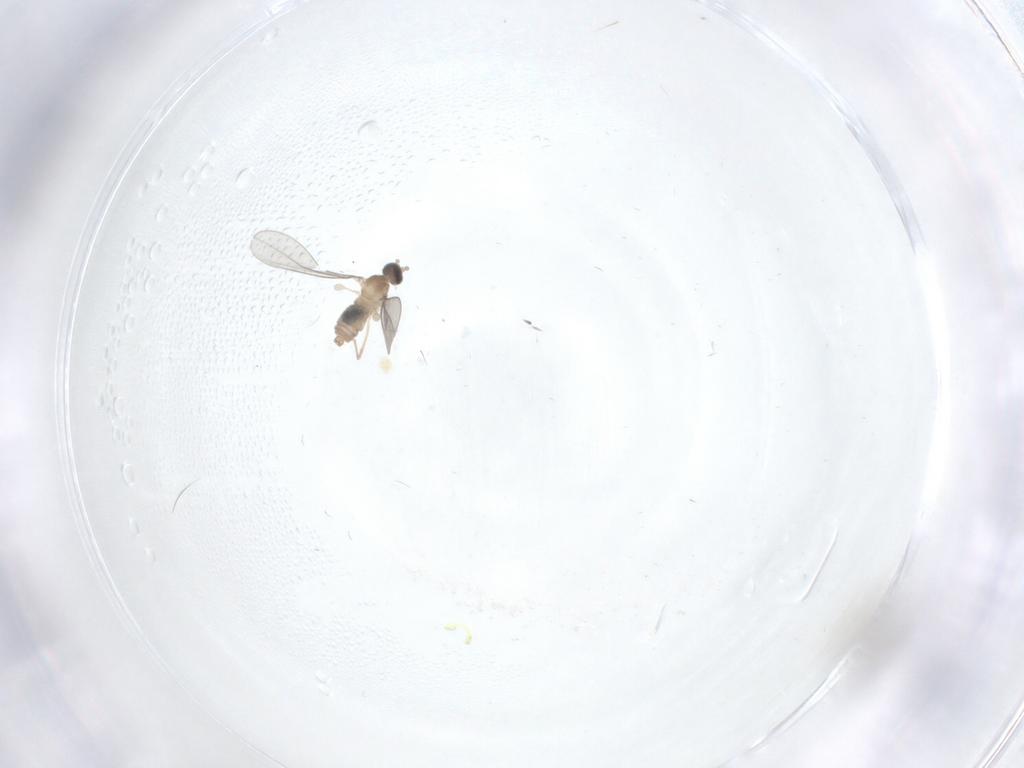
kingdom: Animalia
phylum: Arthropoda
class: Insecta
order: Diptera
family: Cecidomyiidae
